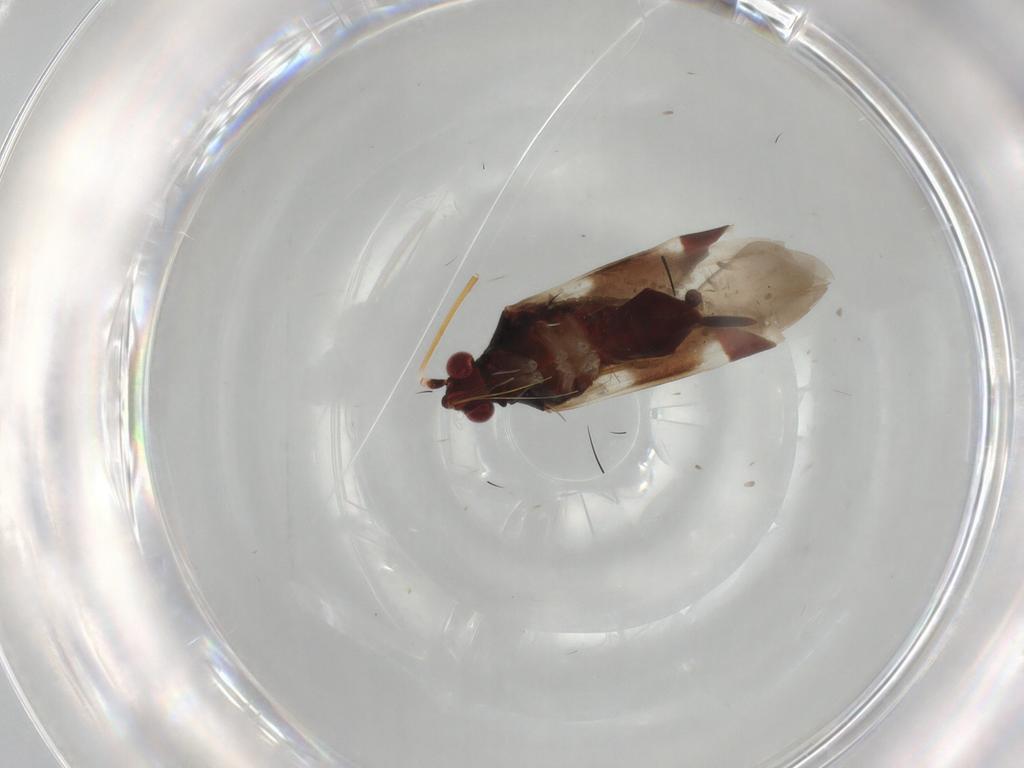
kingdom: Animalia
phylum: Arthropoda
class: Insecta
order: Hemiptera
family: Miridae
